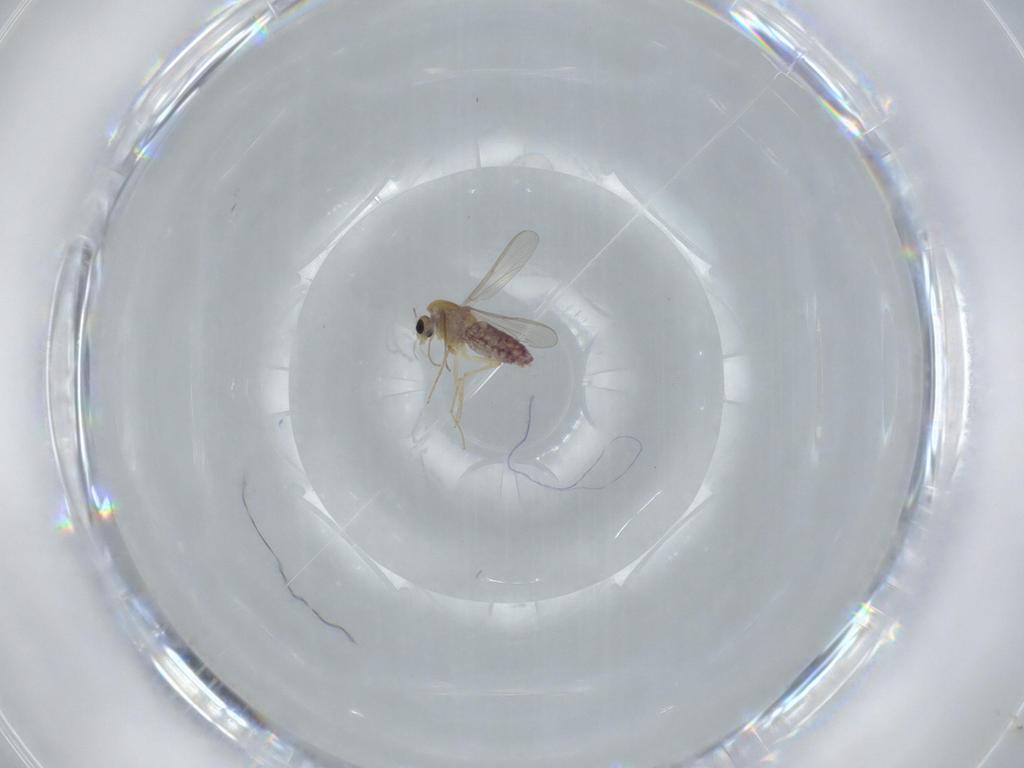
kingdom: Animalia
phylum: Arthropoda
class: Insecta
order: Diptera
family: Chironomidae
